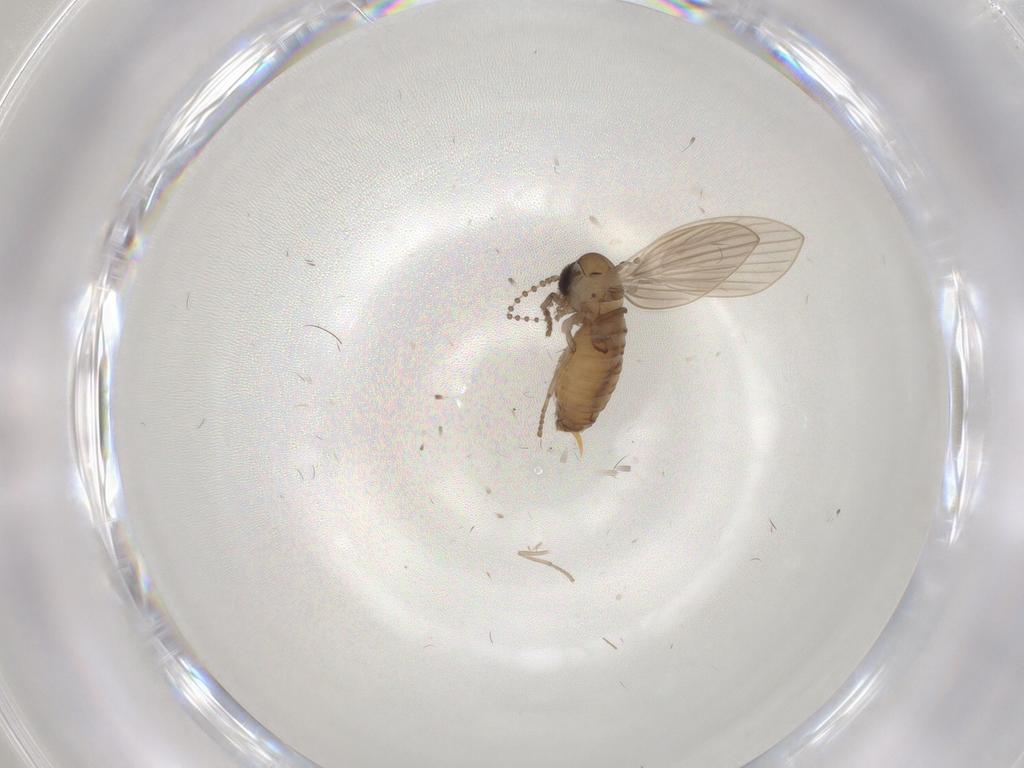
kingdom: Animalia
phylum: Arthropoda
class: Insecta
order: Diptera
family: Psychodidae
